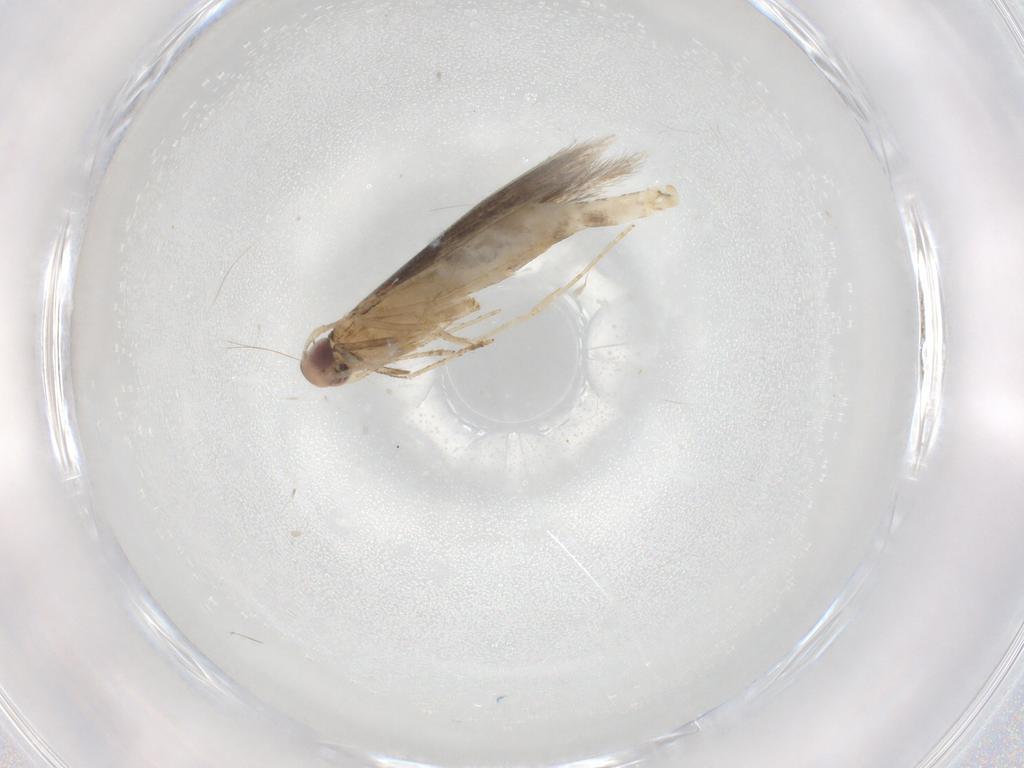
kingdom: Animalia
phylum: Arthropoda
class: Insecta
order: Lepidoptera
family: Cosmopterigidae
